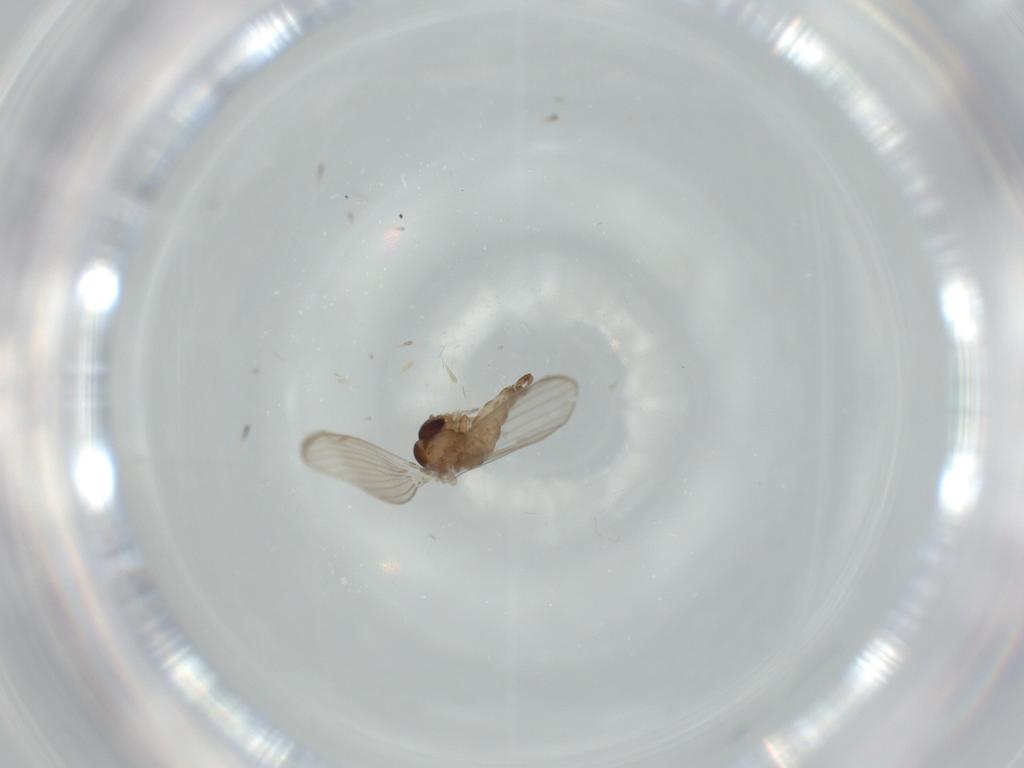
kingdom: Animalia
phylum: Arthropoda
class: Insecta
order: Diptera
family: Psychodidae
